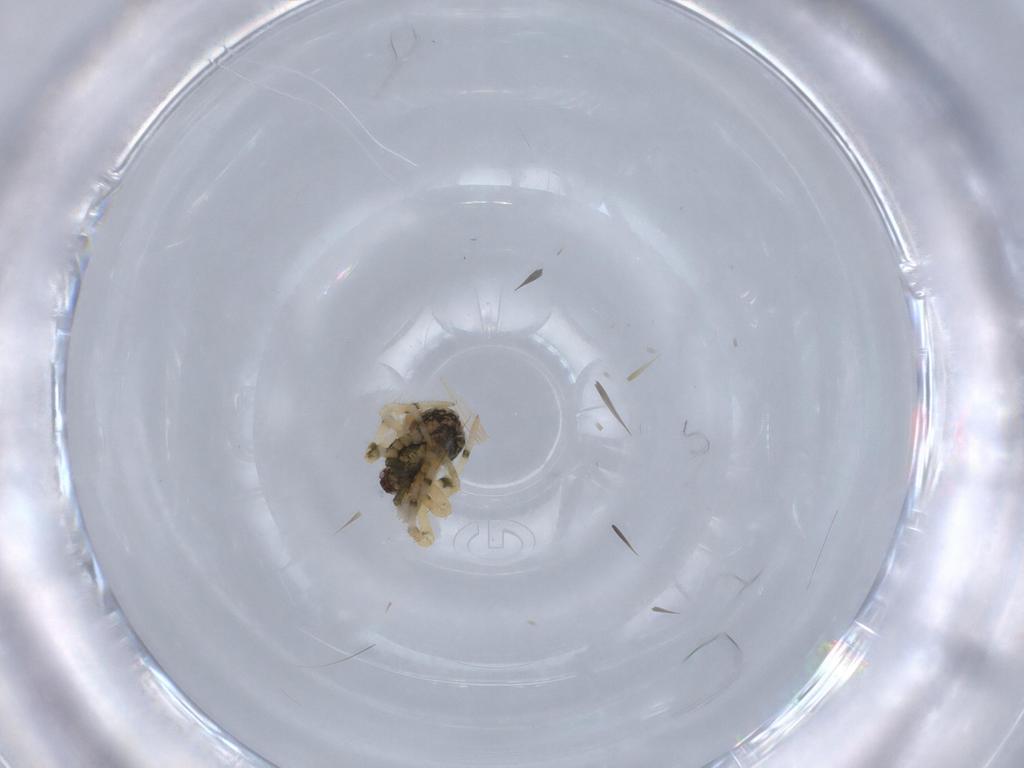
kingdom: Animalia
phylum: Arthropoda
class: Arachnida
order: Araneae
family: Theridiidae
